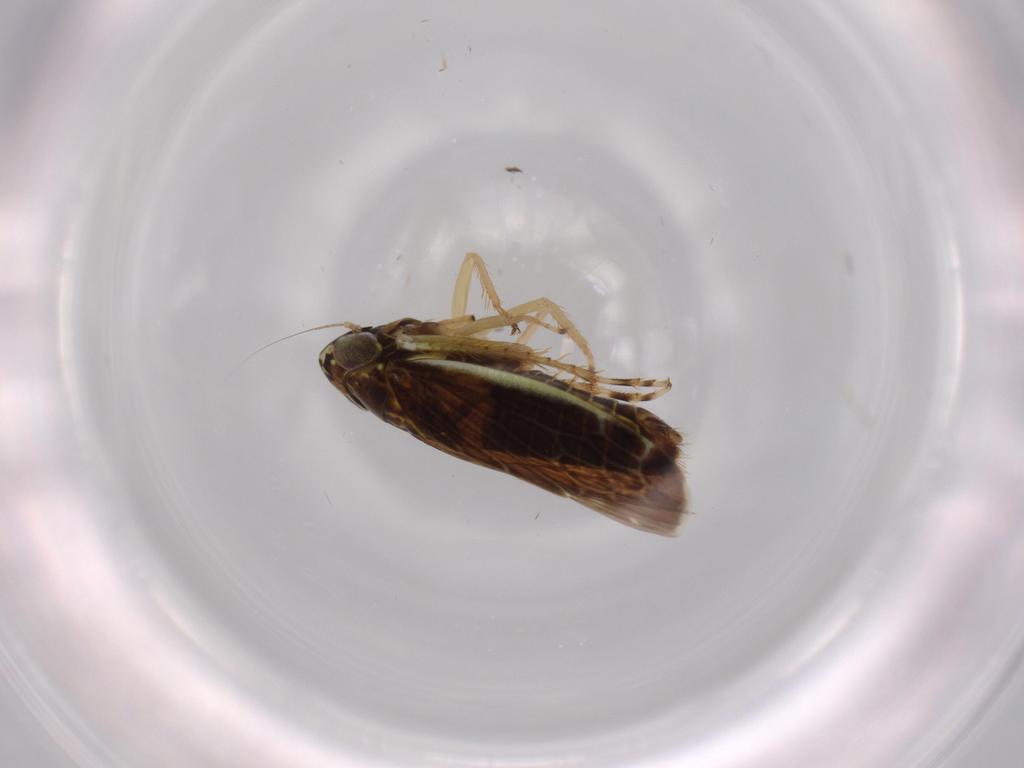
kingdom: Animalia
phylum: Arthropoda
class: Insecta
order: Hemiptera
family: Cicadellidae
